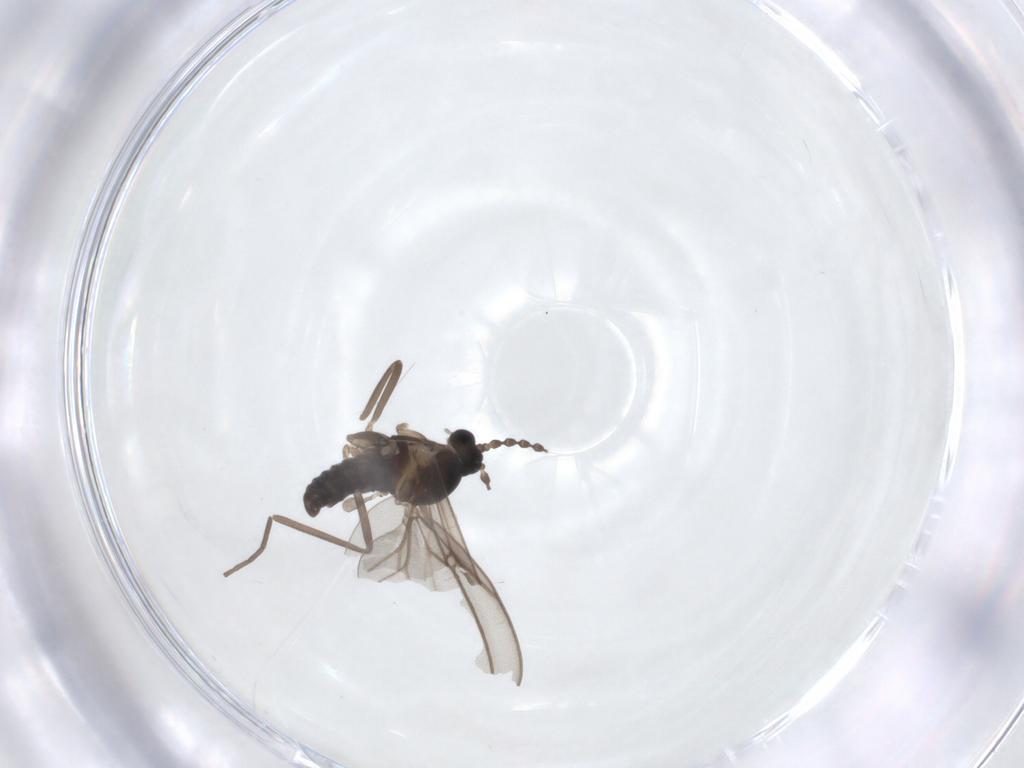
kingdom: Animalia
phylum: Arthropoda
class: Insecta
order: Diptera
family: Cecidomyiidae
